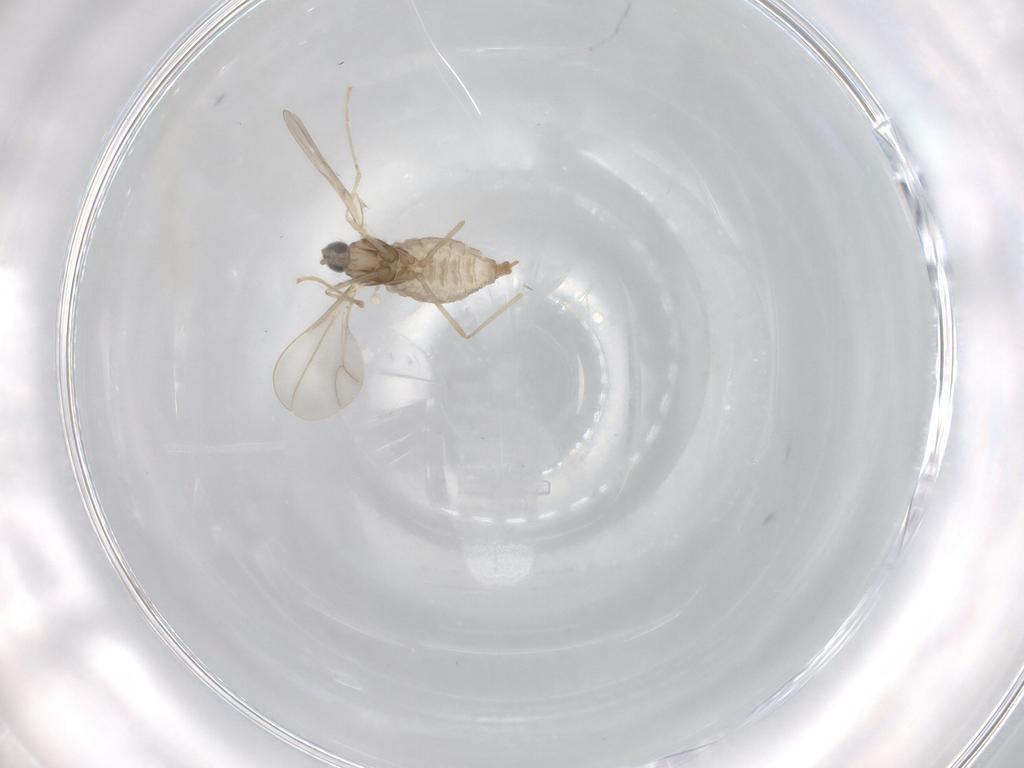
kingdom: Animalia
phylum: Arthropoda
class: Insecta
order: Diptera
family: Cecidomyiidae
